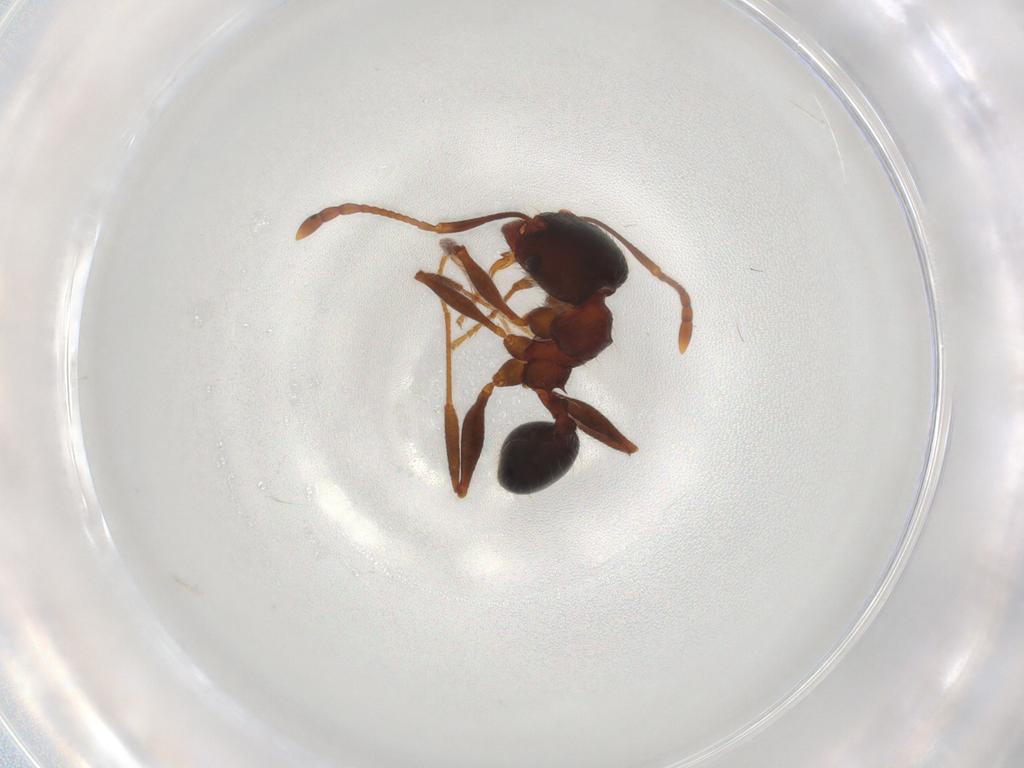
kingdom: Animalia
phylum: Arthropoda
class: Insecta
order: Hymenoptera
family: Formicidae
